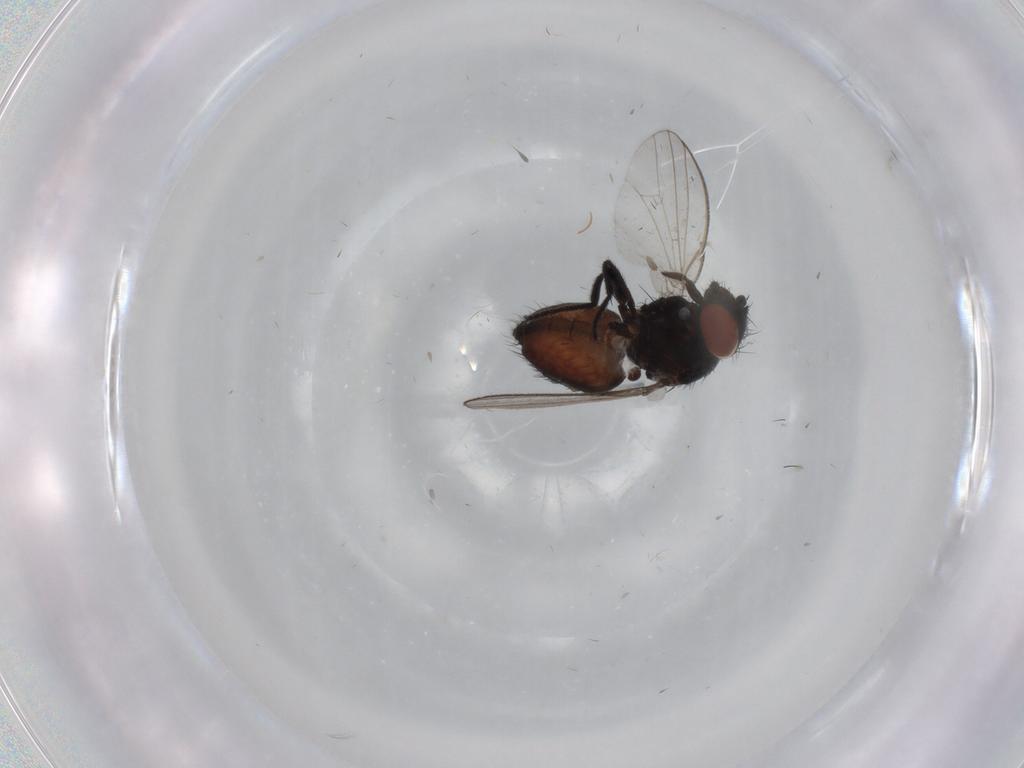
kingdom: Animalia
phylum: Arthropoda
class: Insecta
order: Diptera
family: Milichiidae
